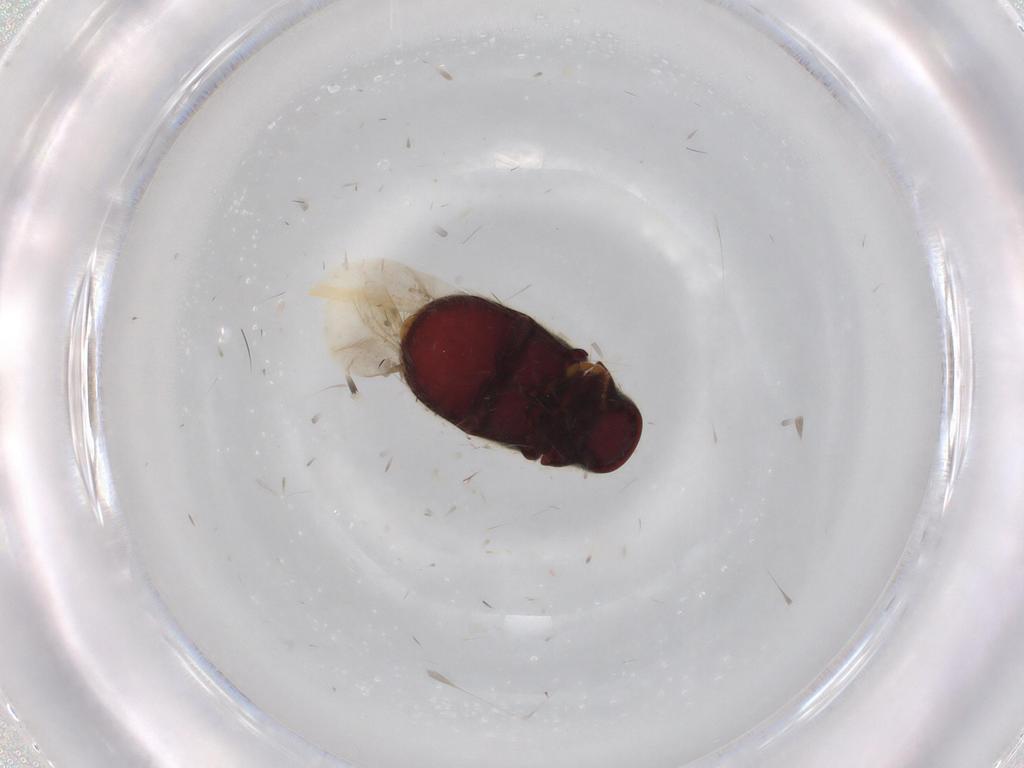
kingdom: Animalia
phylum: Arthropoda
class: Insecta
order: Coleoptera
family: Ptinidae
